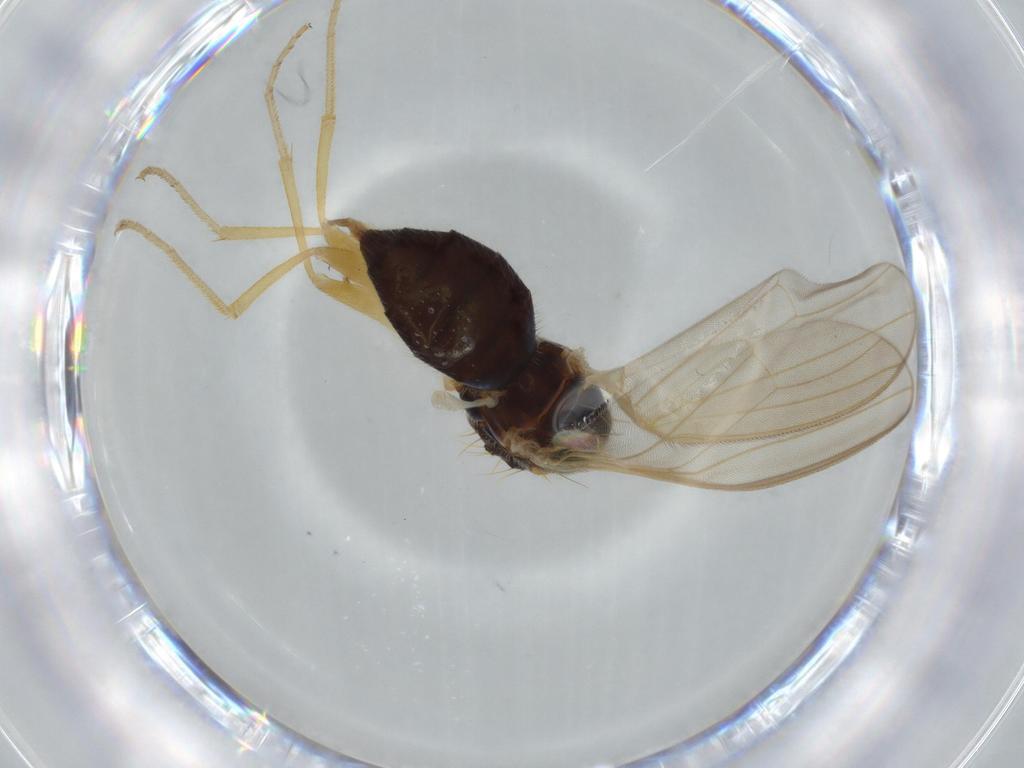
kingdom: Animalia
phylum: Arthropoda
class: Insecta
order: Diptera
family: Psilidae
